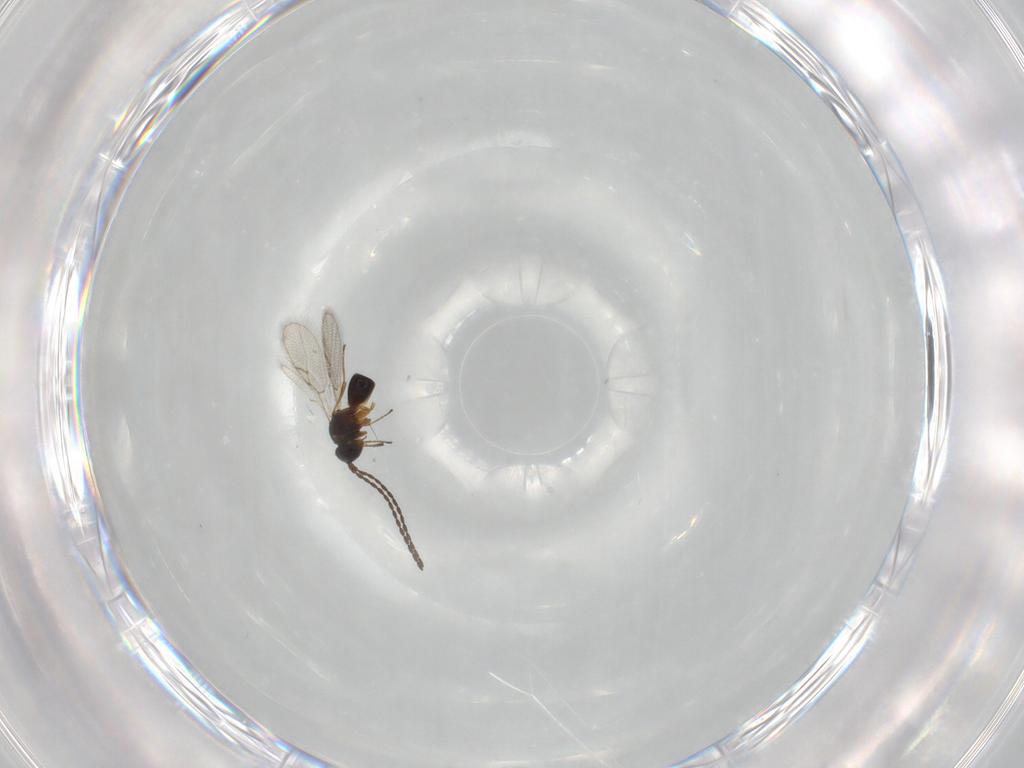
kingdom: Animalia
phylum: Arthropoda
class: Insecta
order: Hymenoptera
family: Figitidae
